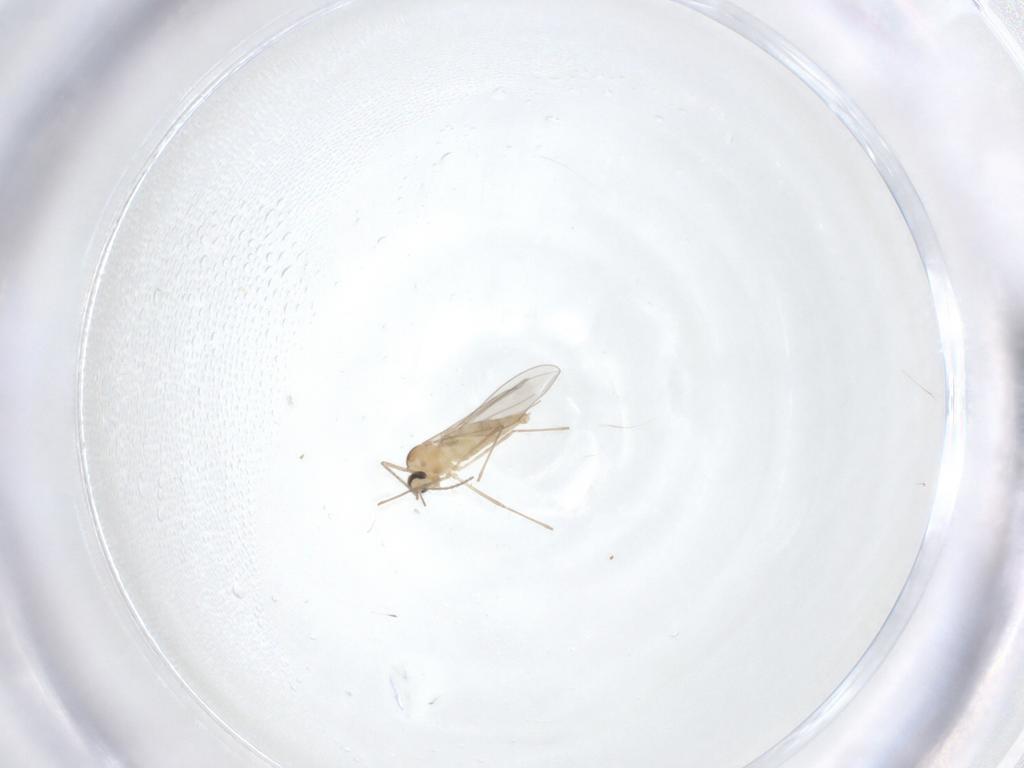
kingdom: Animalia
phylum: Arthropoda
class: Insecta
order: Diptera
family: Cecidomyiidae
